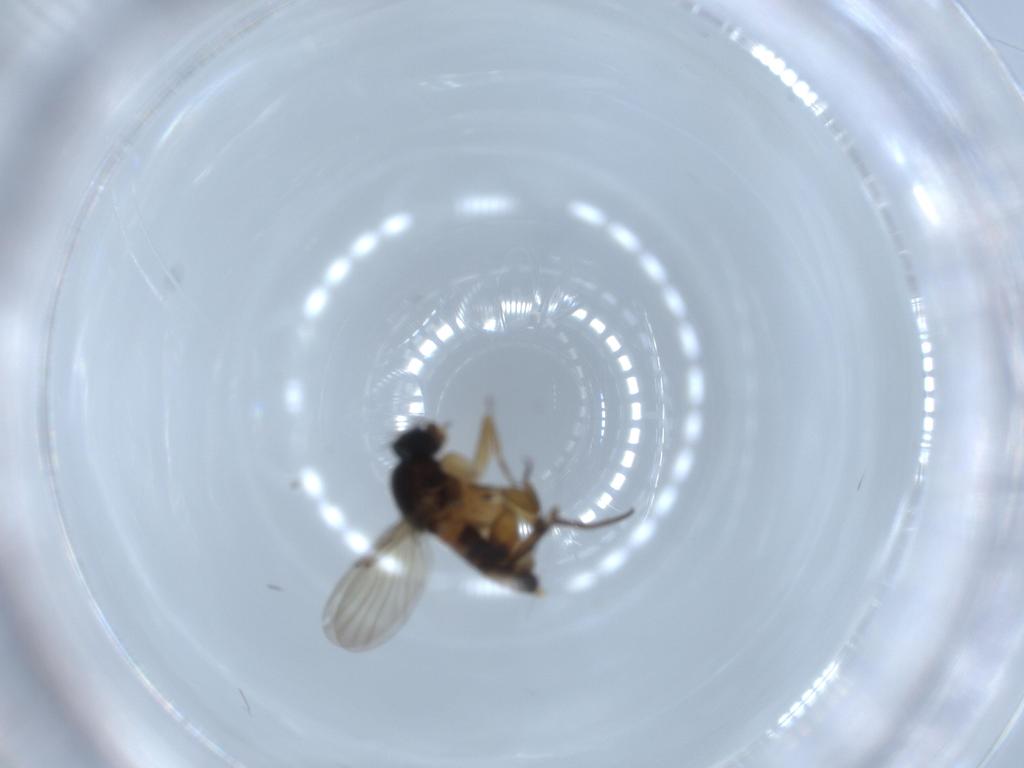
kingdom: Animalia
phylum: Arthropoda
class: Insecta
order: Diptera
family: Phoridae
